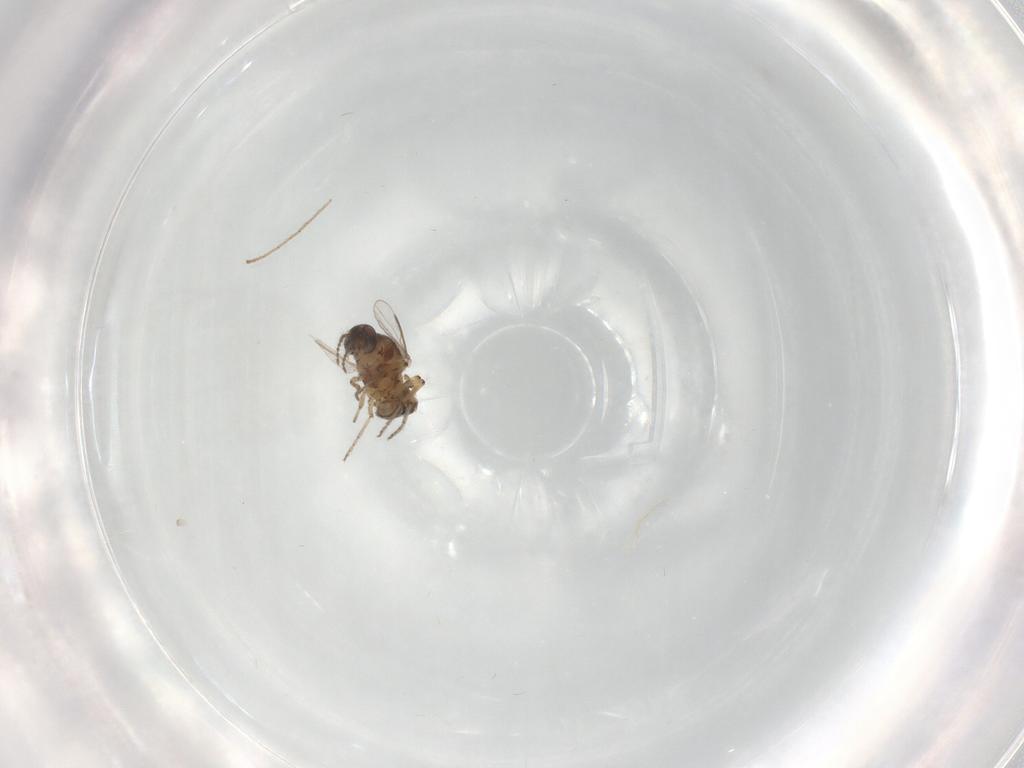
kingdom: Animalia
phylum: Arthropoda
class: Insecta
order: Diptera
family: Ceratopogonidae
